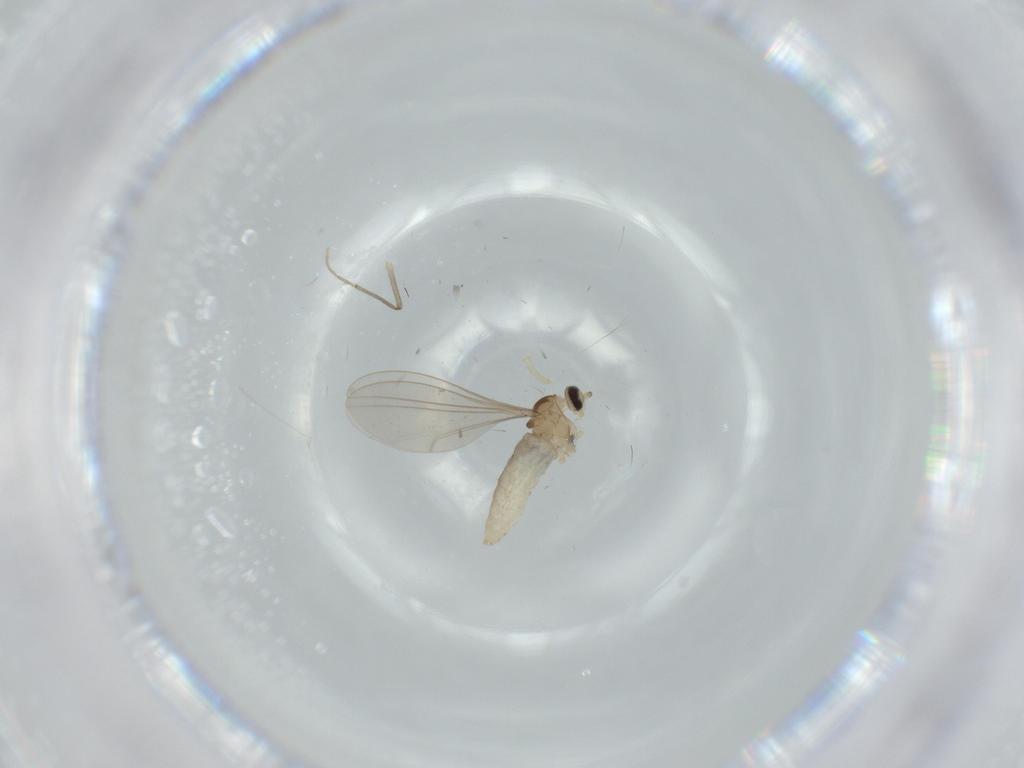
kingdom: Animalia
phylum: Arthropoda
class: Insecta
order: Diptera
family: Cecidomyiidae
